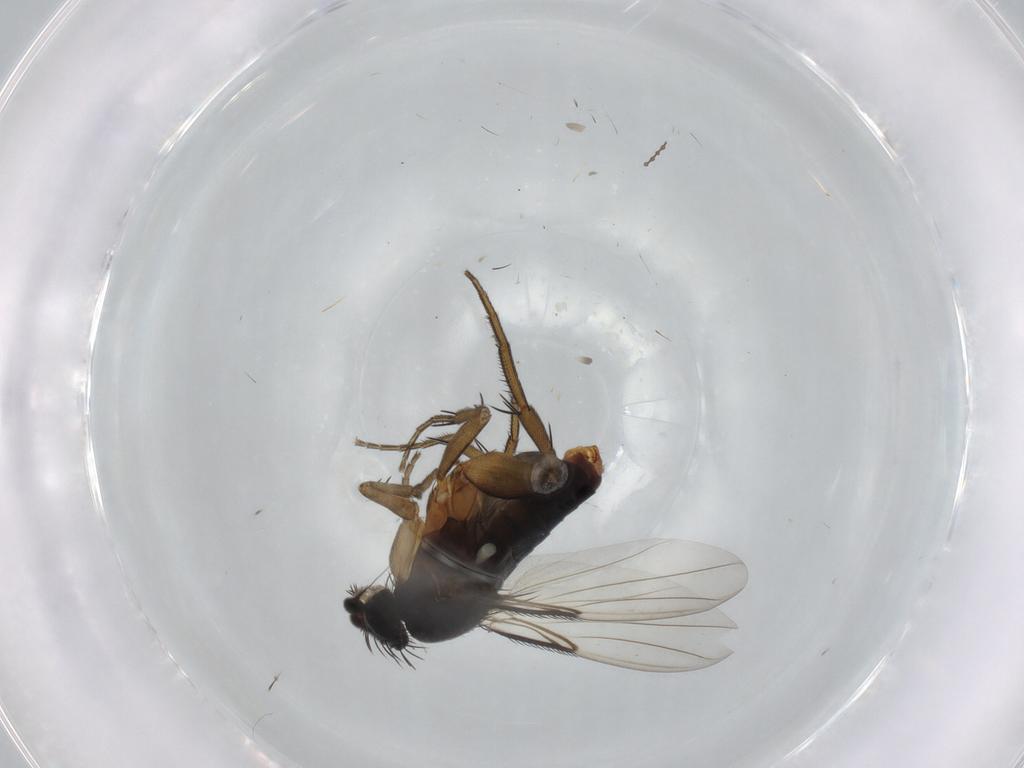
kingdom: Animalia
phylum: Arthropoda
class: Insecta
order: Diptera
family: Phoridae
